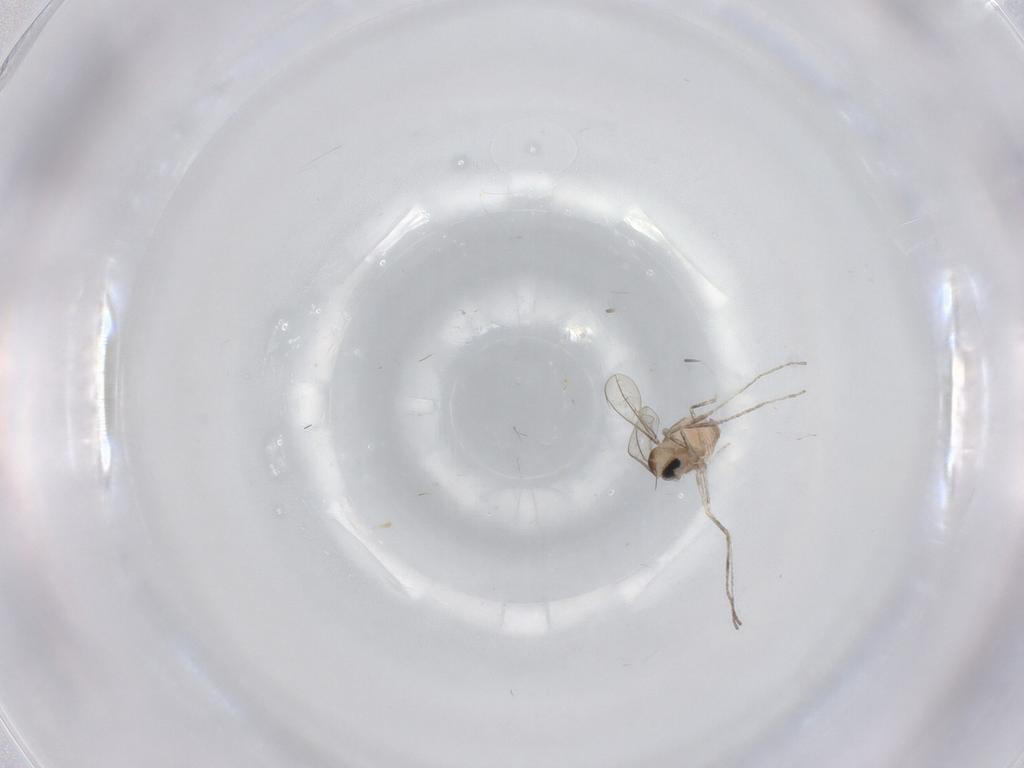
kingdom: Animalia
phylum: Arthropoda
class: Insecta
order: Diptera
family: Cecidomyiidae
